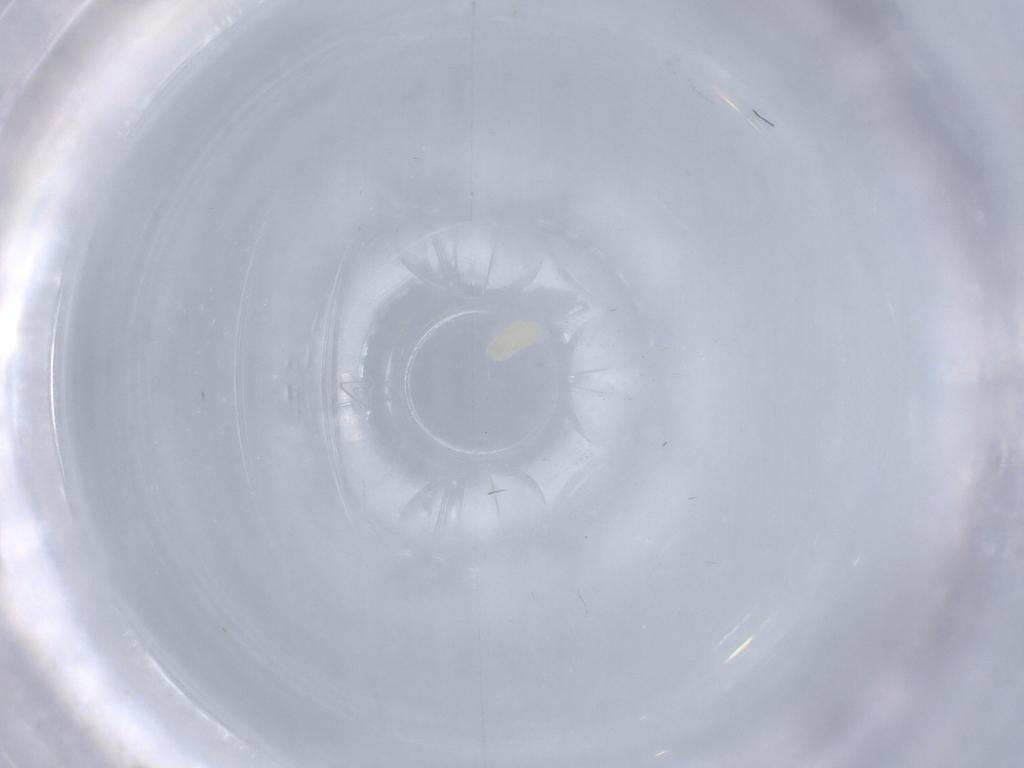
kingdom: Animalia
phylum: Arthropoda
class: Arachnida
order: Trombidiformes
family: Eupodidae
